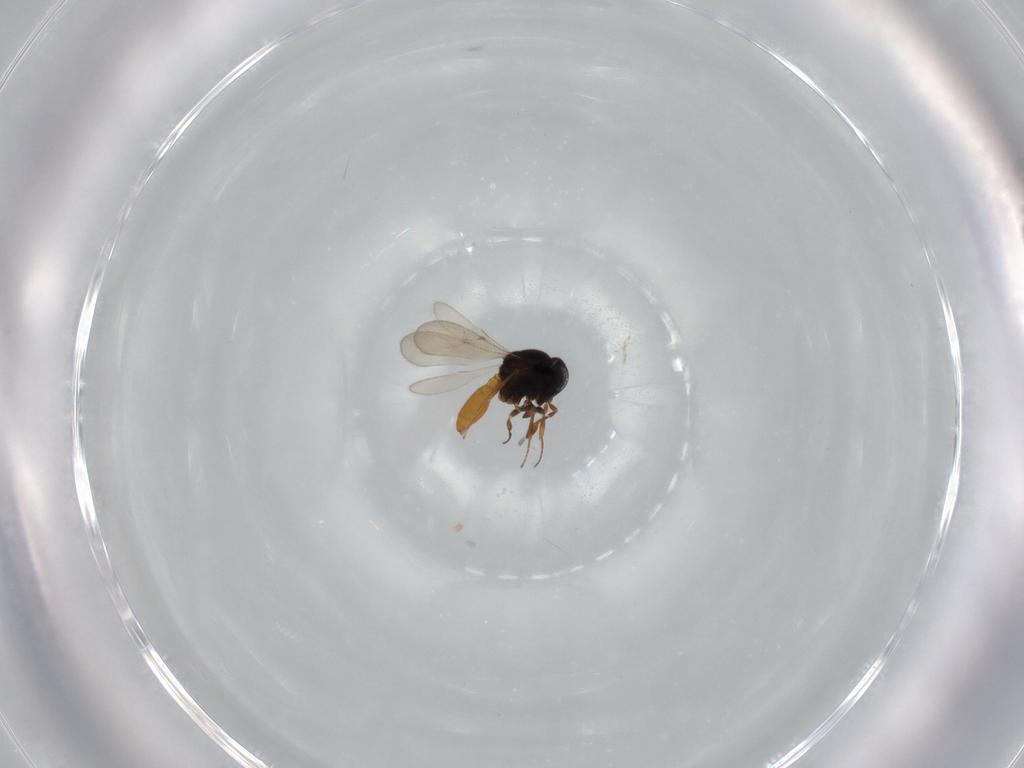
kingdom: Animalia
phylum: Arthropoda
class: Insecta
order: Hymenoptera
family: Scelionidae
